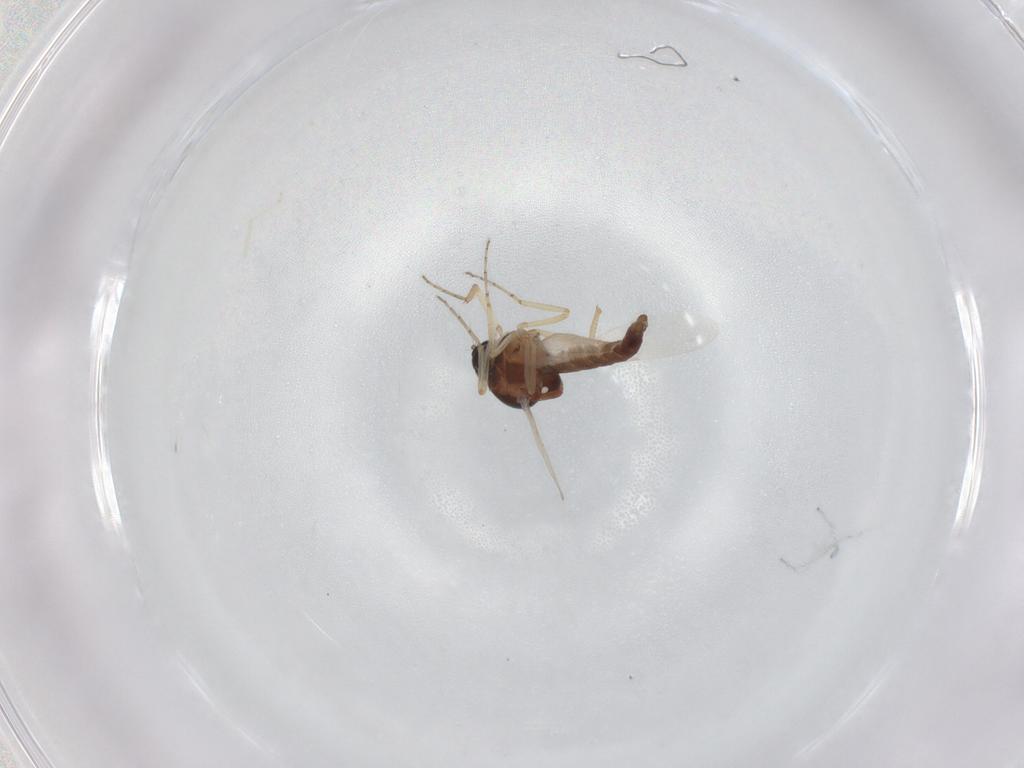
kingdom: Animalia
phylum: Arthropoda
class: Insecta
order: Diptera
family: Ceratopogonidae
